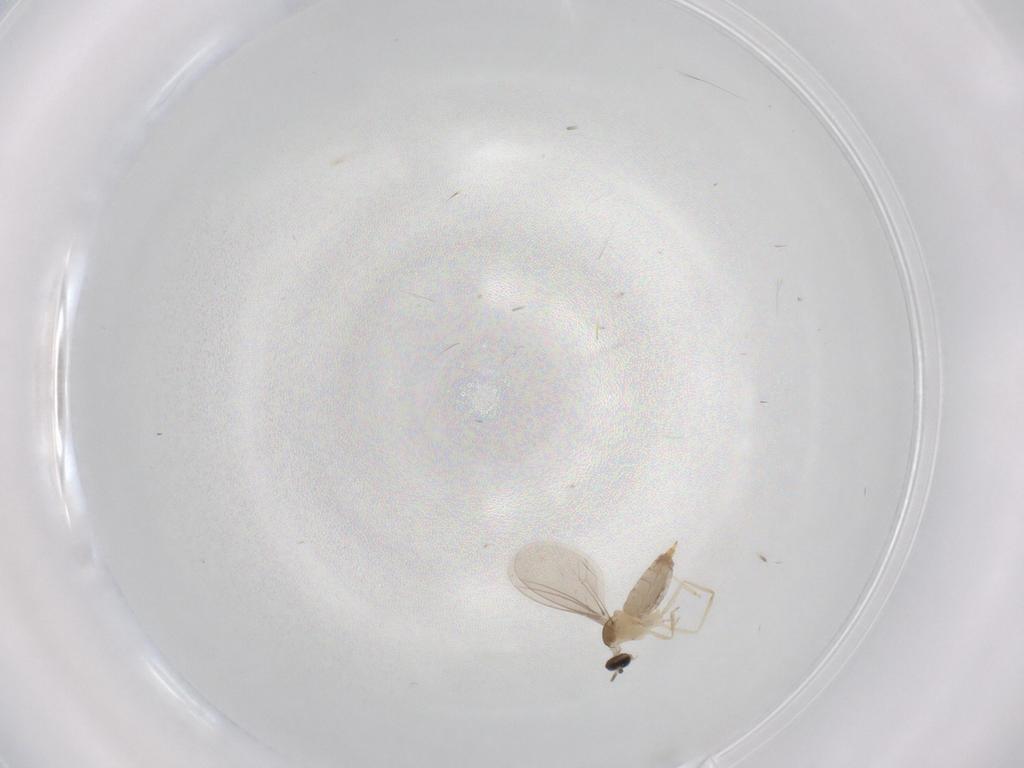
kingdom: Animalia
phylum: Arthropoda
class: Insecta
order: Diptera
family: Cecidomyiidae
